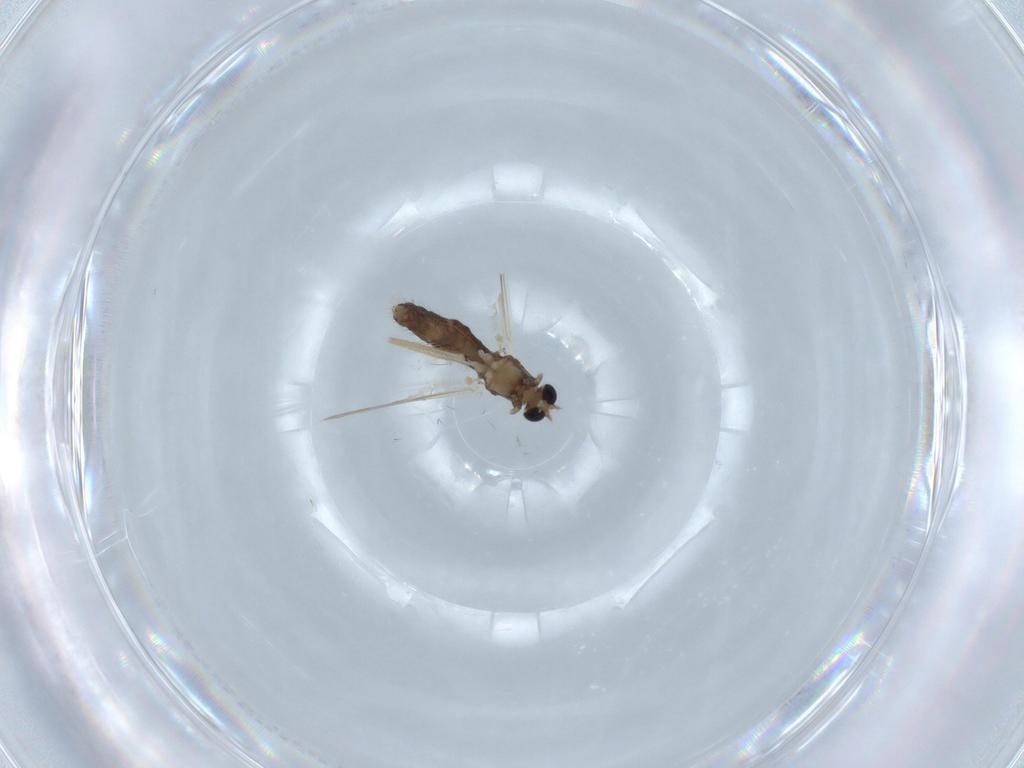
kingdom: Animalia
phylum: Arthropoda
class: Insecta
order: Diptera
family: Chironomidae
